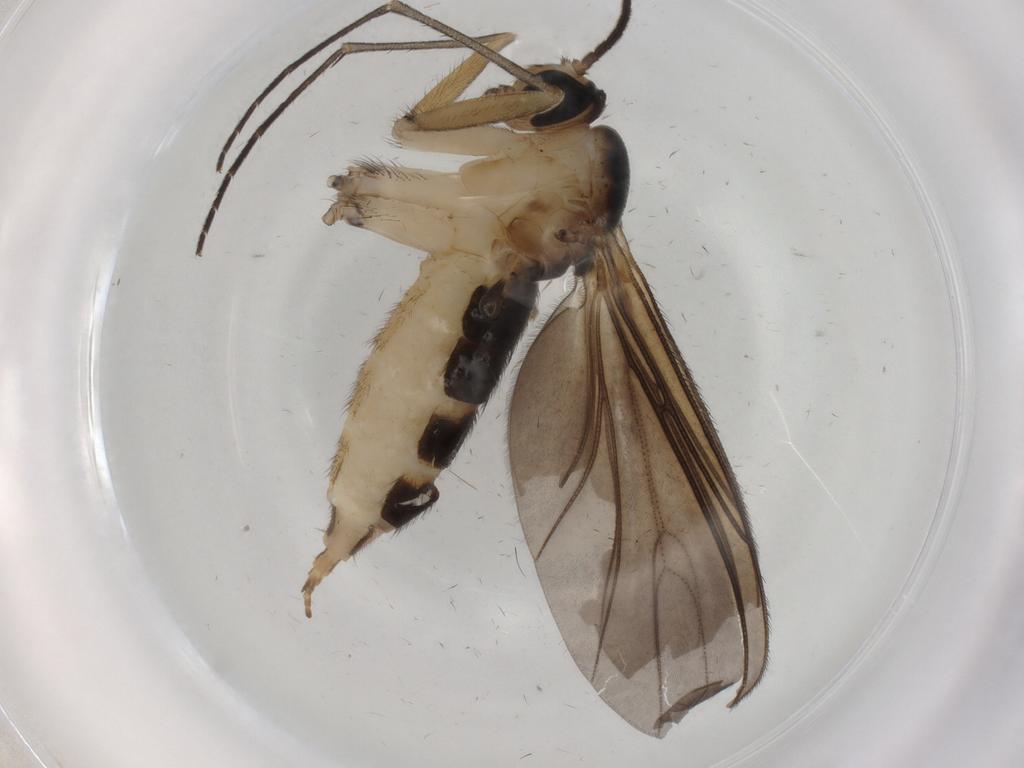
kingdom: Animalia
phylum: Arthropoda
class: Insecta
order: Diptera
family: Sciaridae
